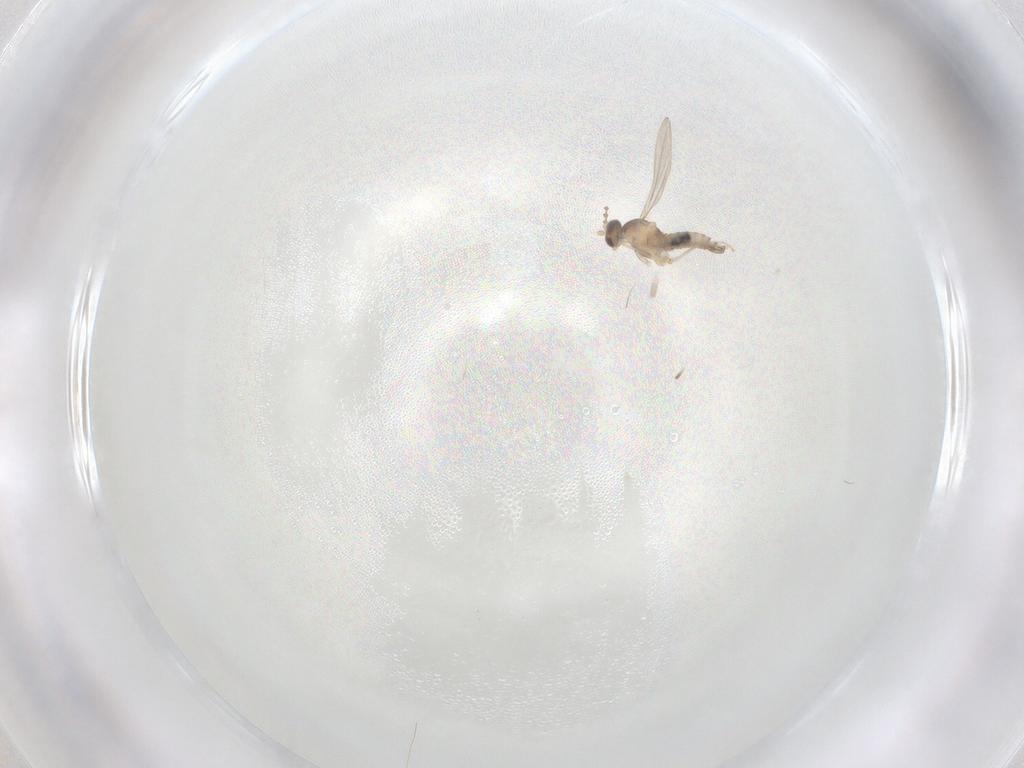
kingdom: Animalia
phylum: Arthropoda
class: Insecta
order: Diptera
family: Cecidomyiidae
